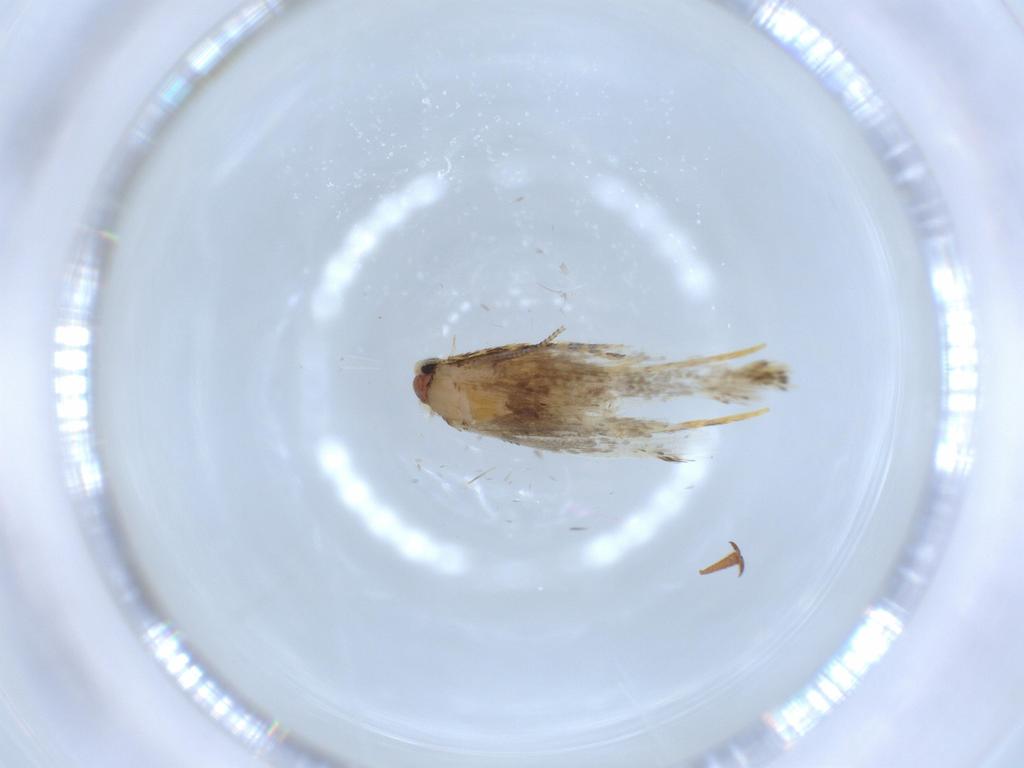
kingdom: Animalia
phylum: Arthropoda
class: Insecta
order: Lepidoptera
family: Tineidae
